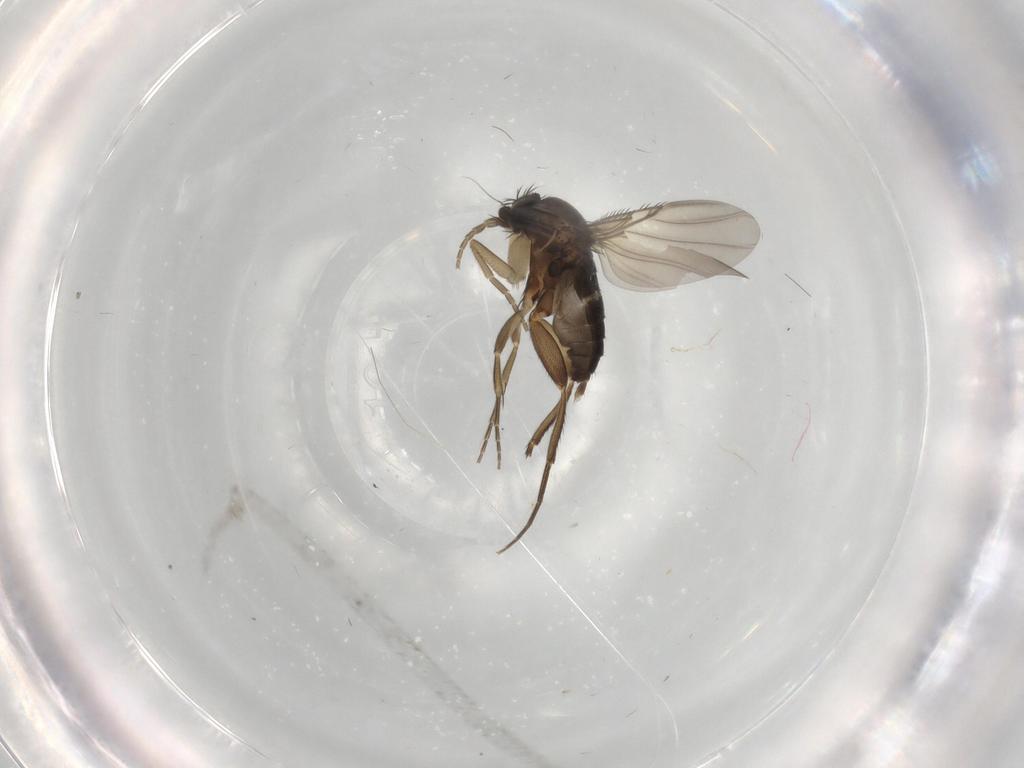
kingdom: Animalia
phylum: Arthropoda
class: Insecta
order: Diptera
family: Phoridae
